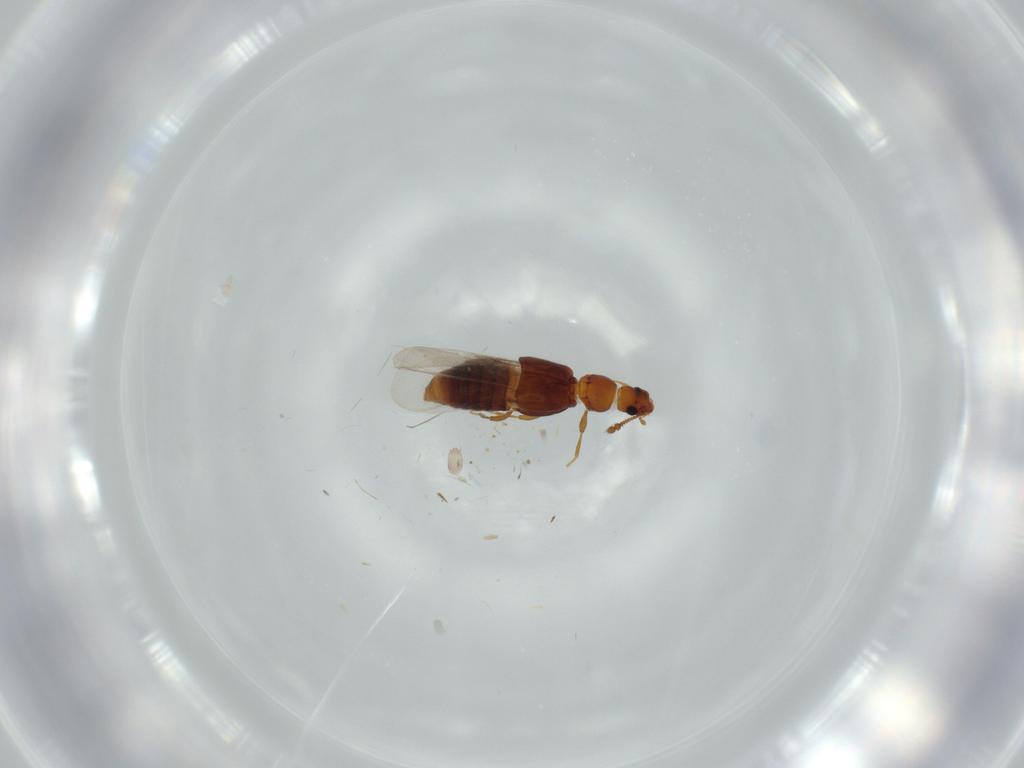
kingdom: Animalia
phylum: Arthropoda
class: Insecta
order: Coleoptera
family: Staphylinidae
